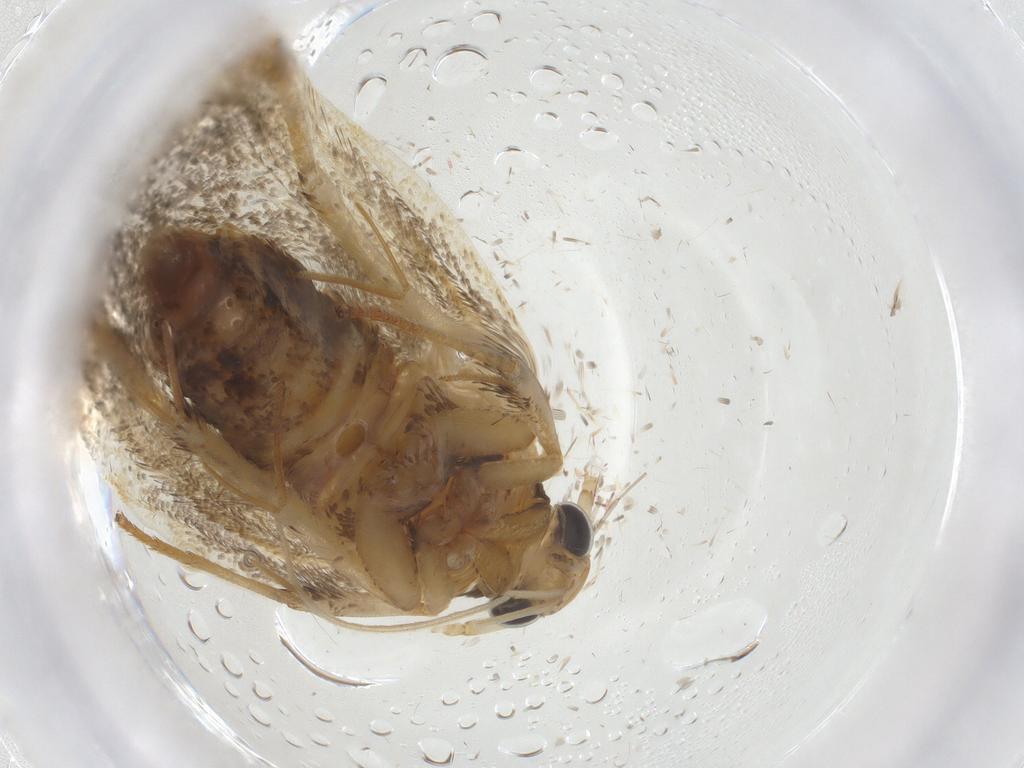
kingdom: Animalia
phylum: Arthropoda
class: Insecta
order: Lepidoptera
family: Lecithoceridae
